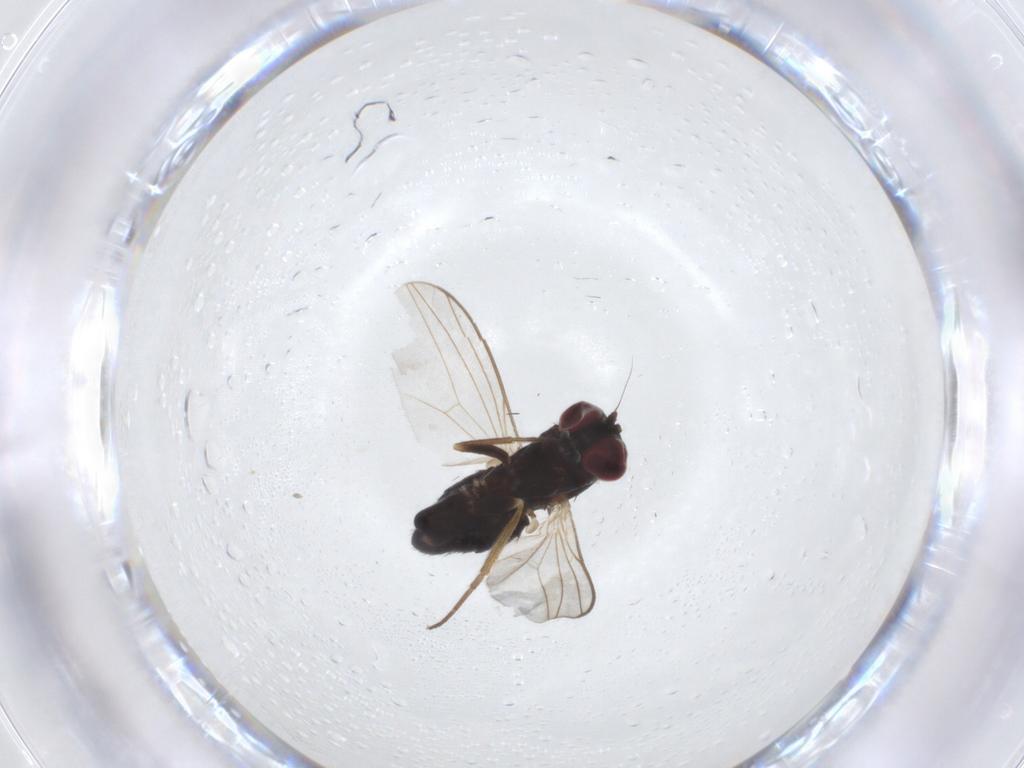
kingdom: Animalia
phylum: Arthropoda
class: Insecta
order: Diptera
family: Dolichopodidae
